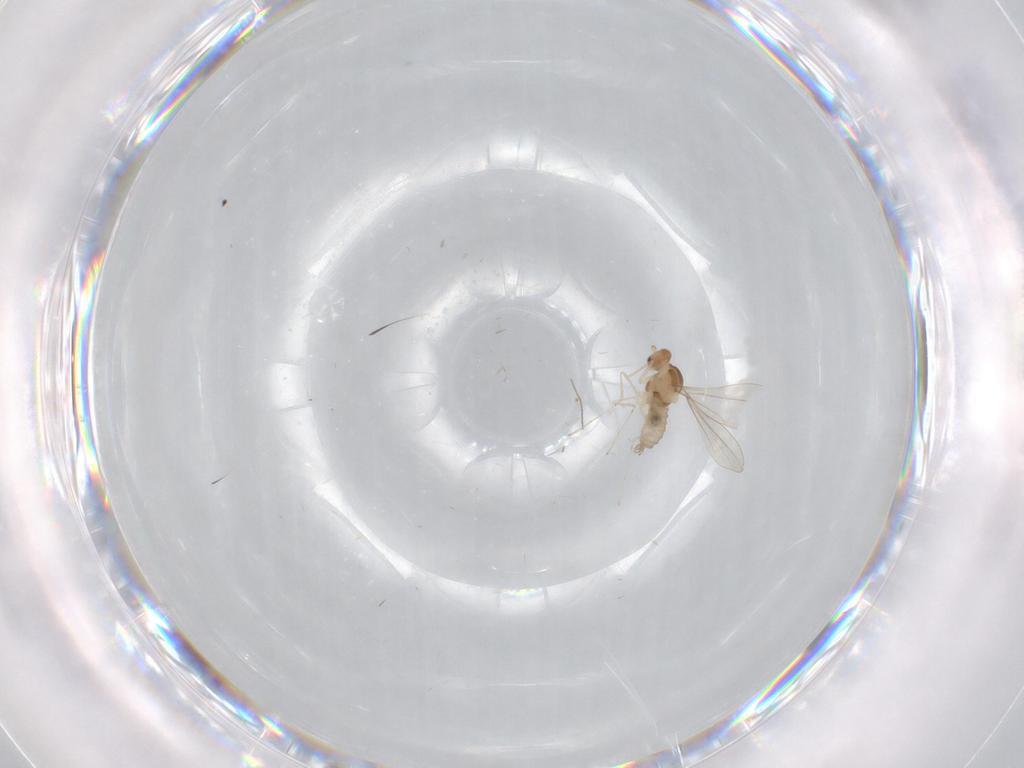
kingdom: Animalia
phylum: Arthropoda
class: Insecta
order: Diptera
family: Cecidomyiidae
